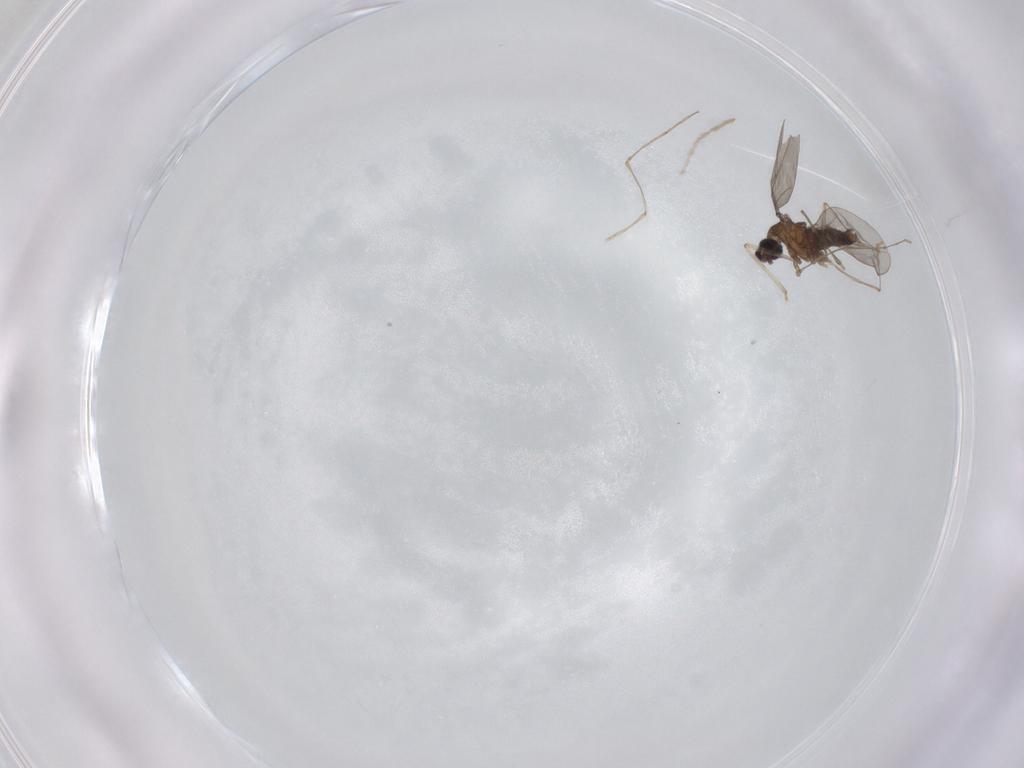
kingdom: Animalia
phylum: Arthropoda
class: Insecta
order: Diptera
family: Cecidomyiidae
